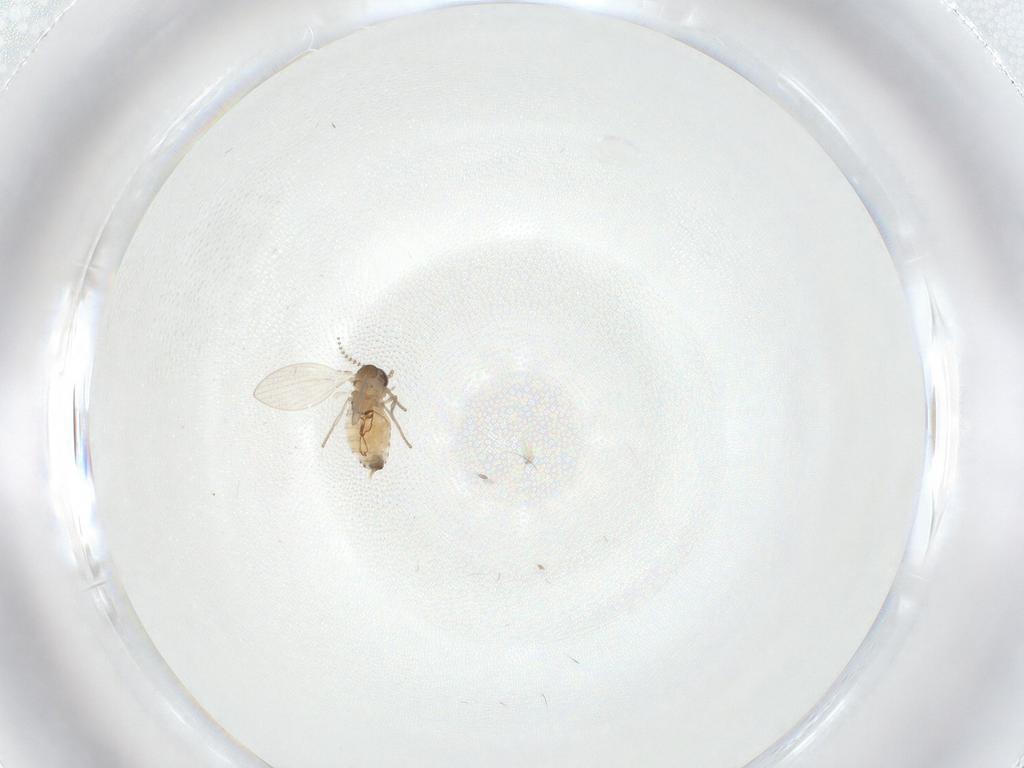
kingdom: Animalia
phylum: Arthropoda
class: Insecta
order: Diptera
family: Psychodidae
